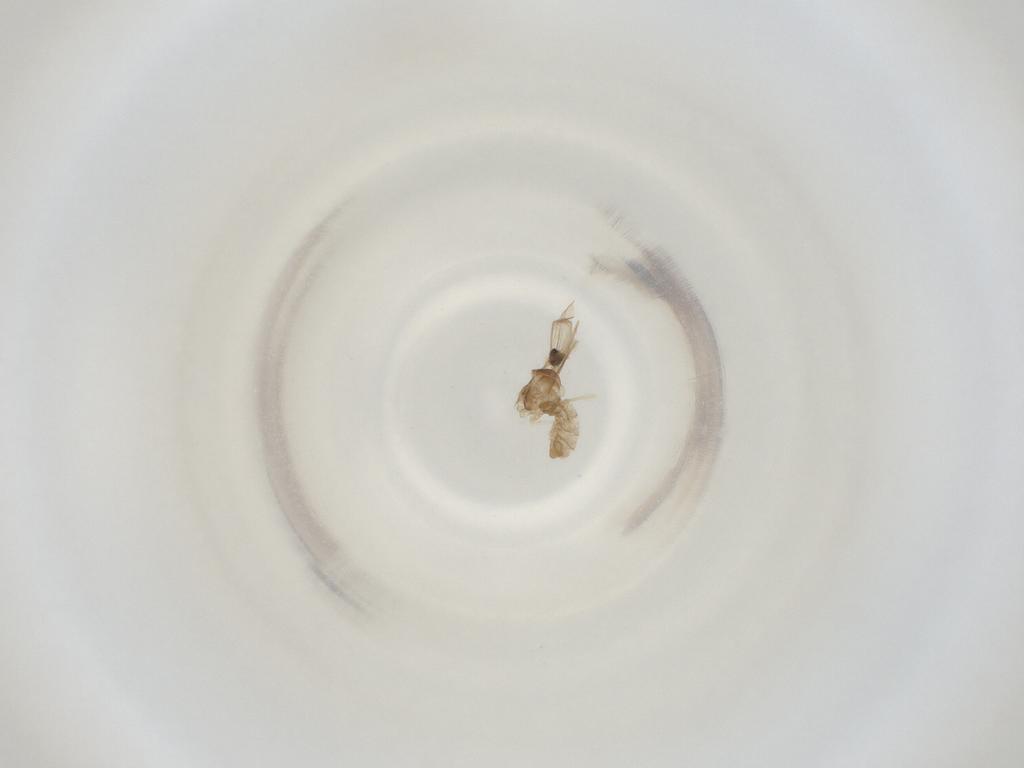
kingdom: Animalia
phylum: Arthropoda
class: Insecta
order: Diptera
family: Cecidomyiidae
